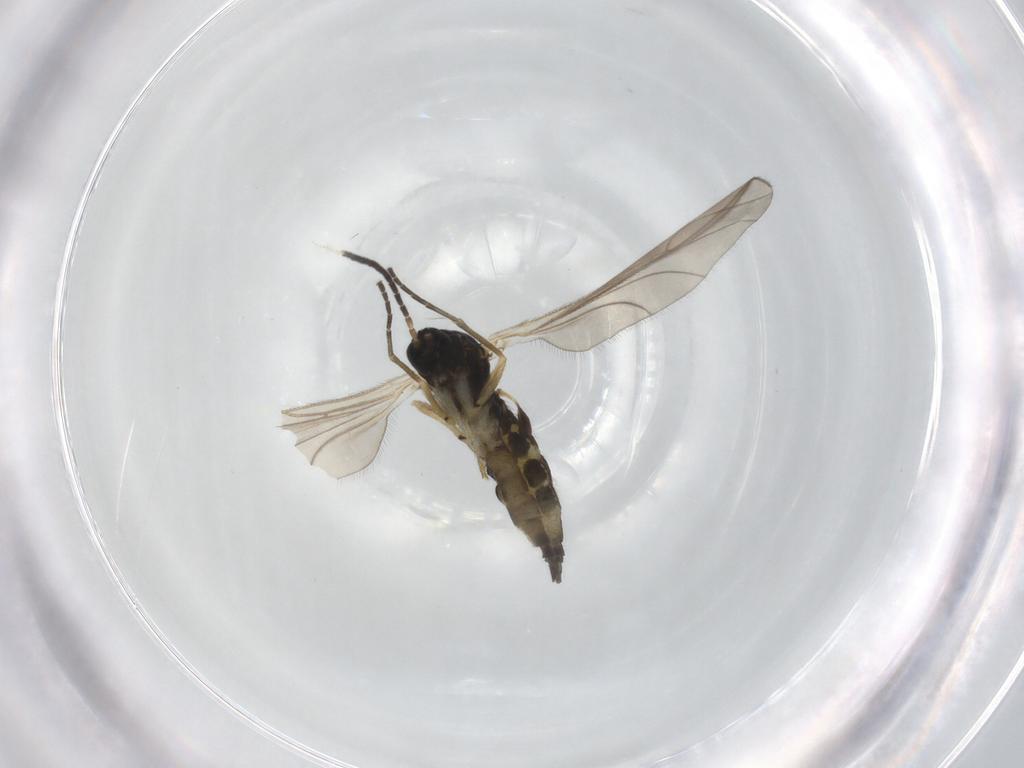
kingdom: Animalia
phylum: Arthropoda
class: Insecta
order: Diptera
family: Sciaridae
